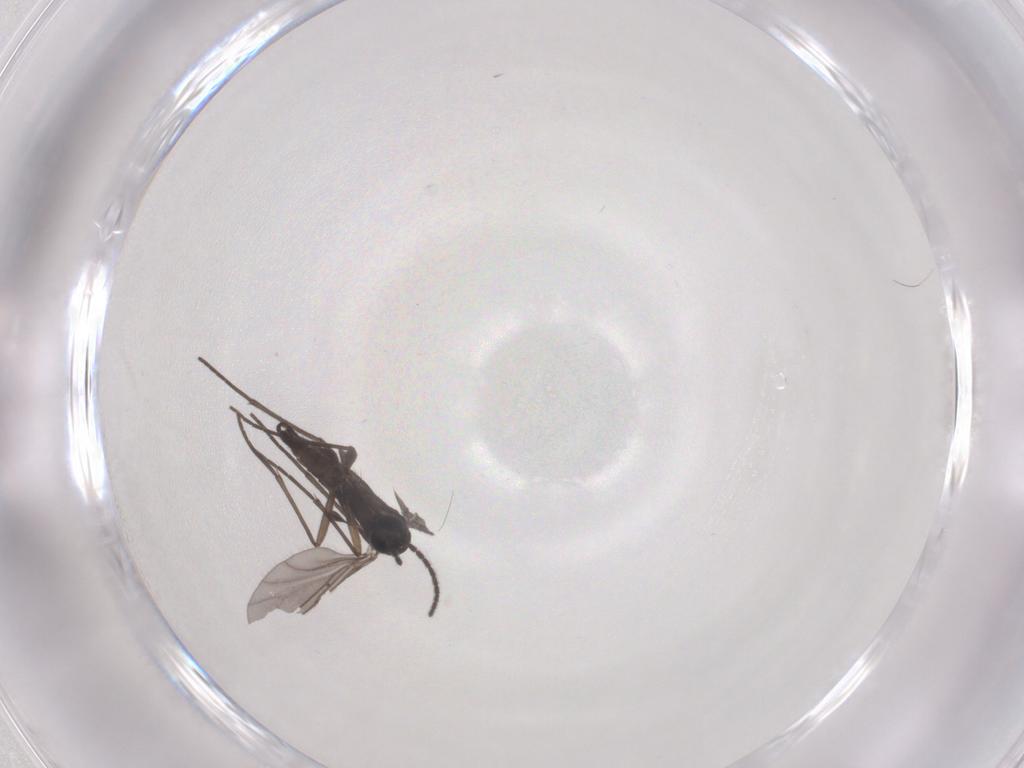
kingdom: Animalia
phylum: Arthropoda
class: Insecta
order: Diptera
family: Sciaridae
